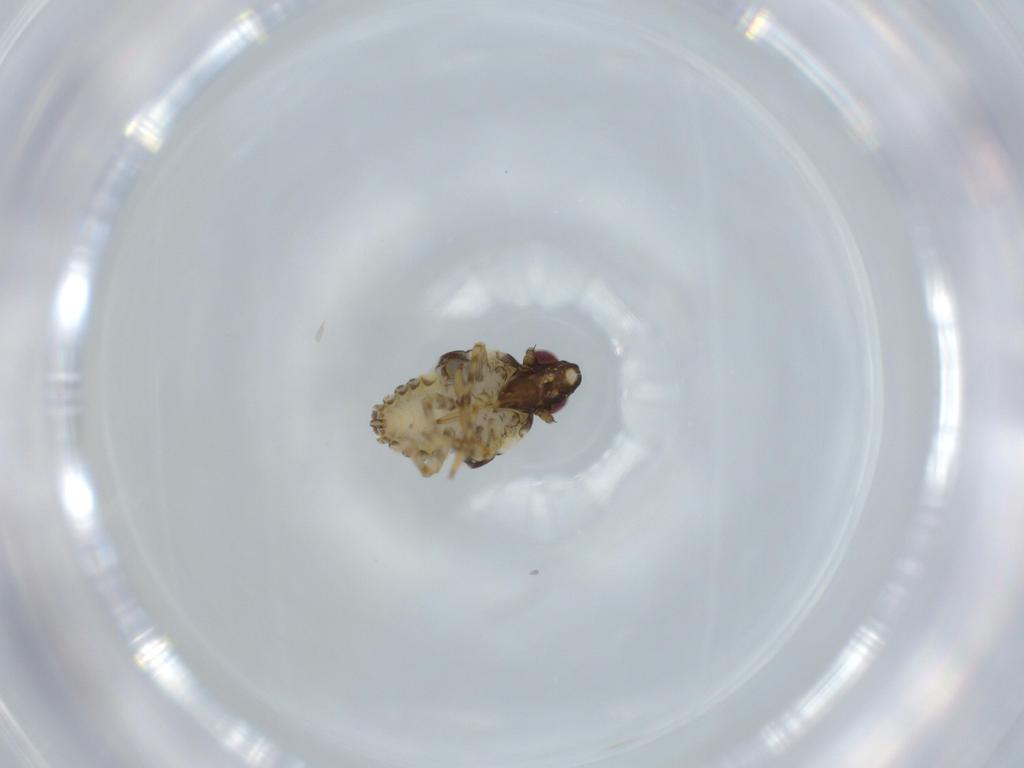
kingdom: Animalia
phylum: Arthropoda
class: Insecta
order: Hemiptera
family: Issidae
